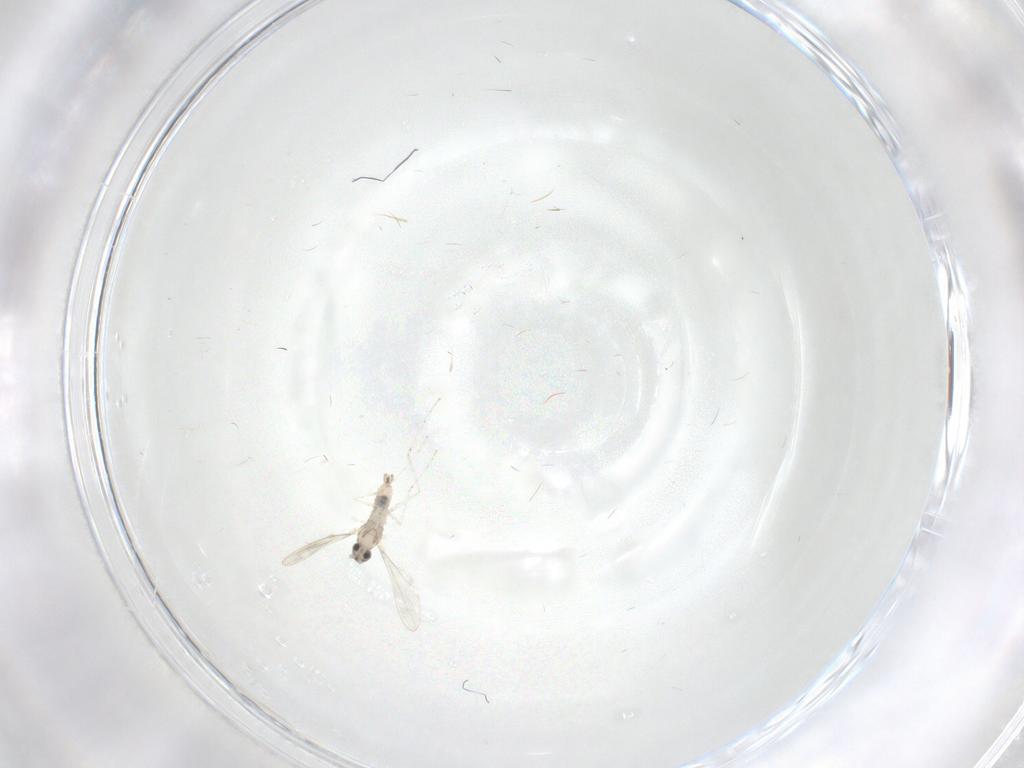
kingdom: Animalia
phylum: Arthropoda
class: Insecta
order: Diptera
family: Cecidomyiidae
